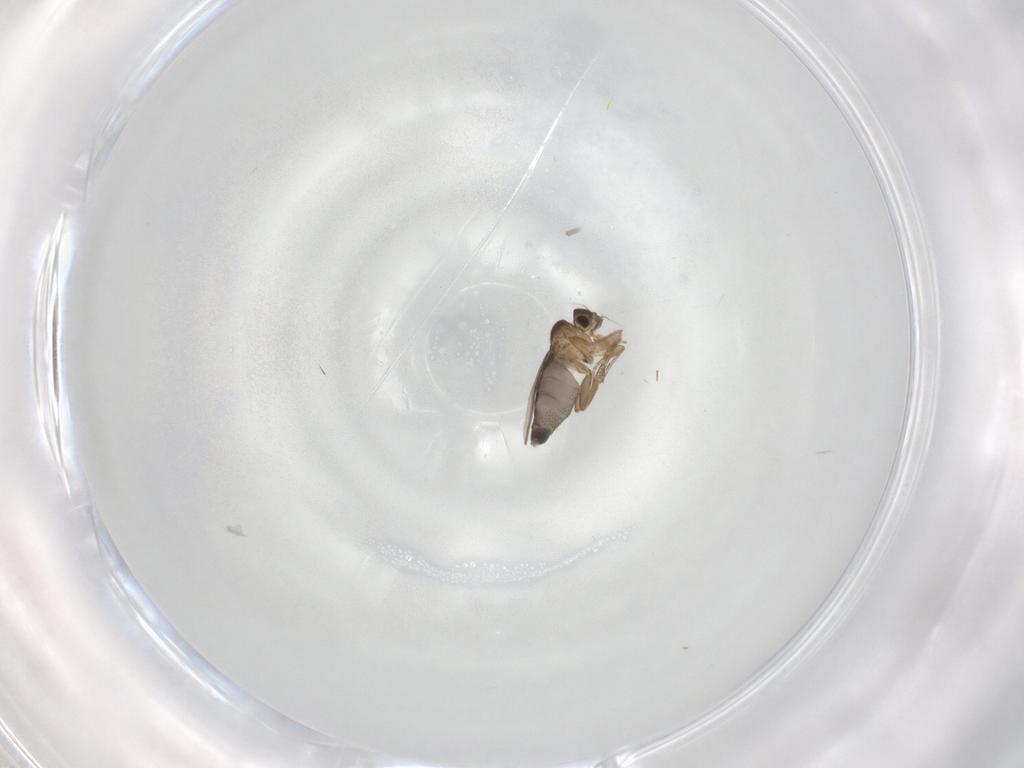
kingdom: Animalia
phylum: Arthropoda
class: Insecta
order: Diptera
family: Phoridae
